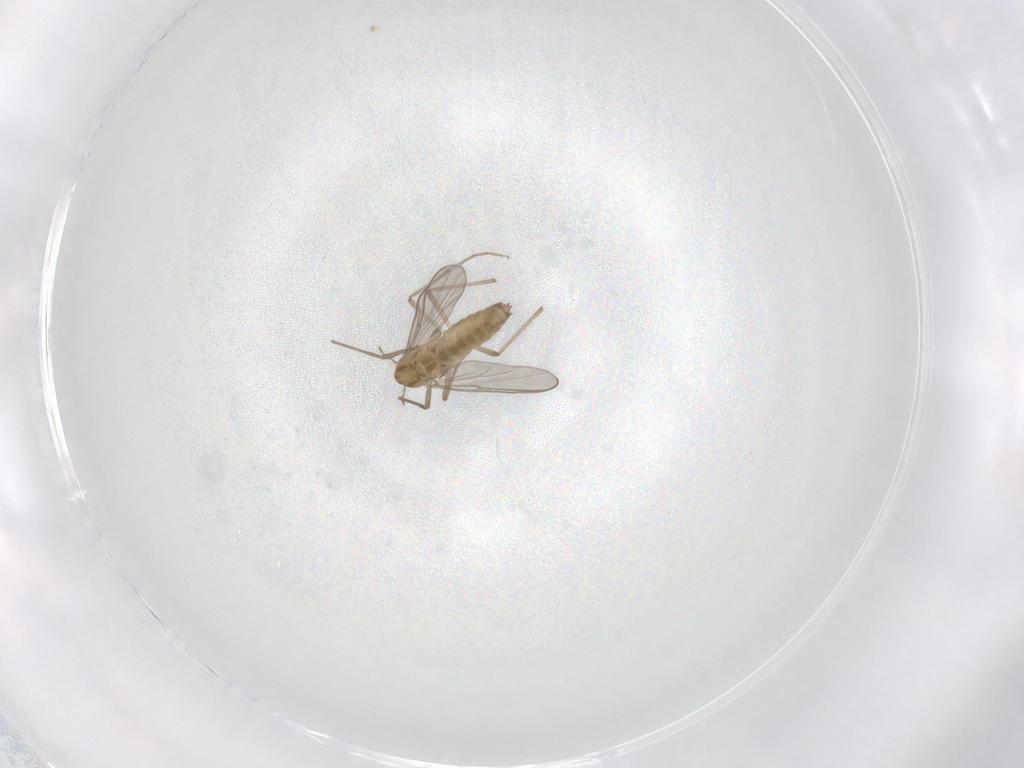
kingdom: Animalia
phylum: Arthropoda
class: Insecta
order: Diptera
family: Chironomidae
